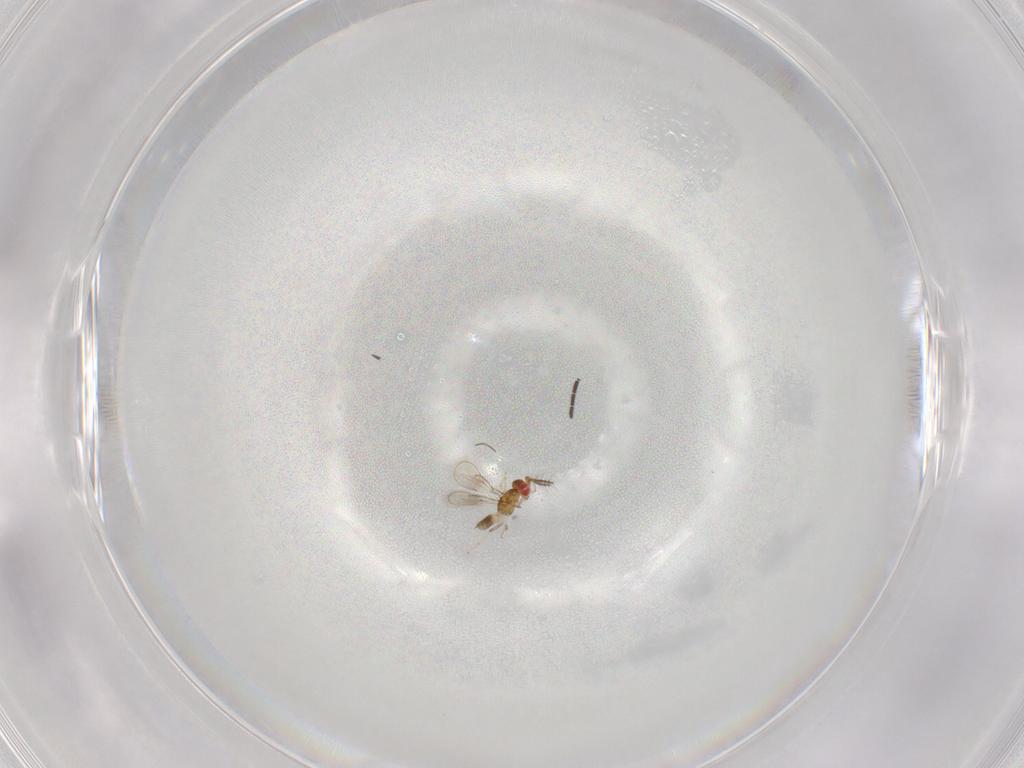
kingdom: Animalia
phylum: Arthropoda
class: Insecta
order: Hymenoptera
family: Eulophidae
